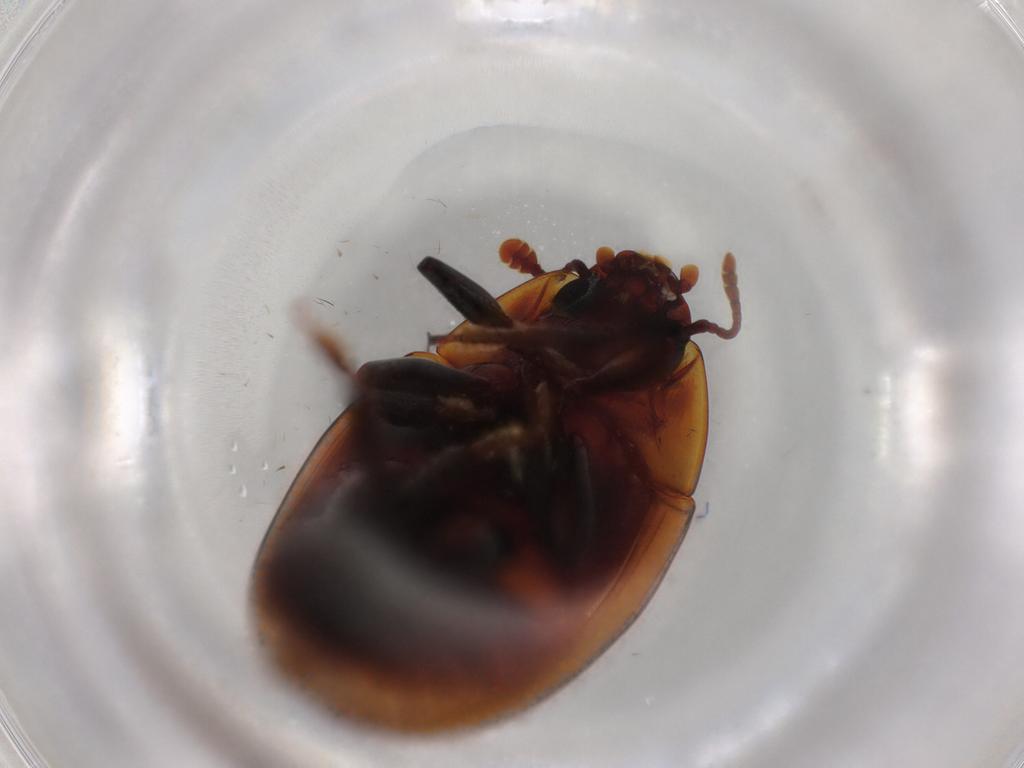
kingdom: Animalia
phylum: Arthropoda
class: Insecta
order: Coleoptera
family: Zopheridae
